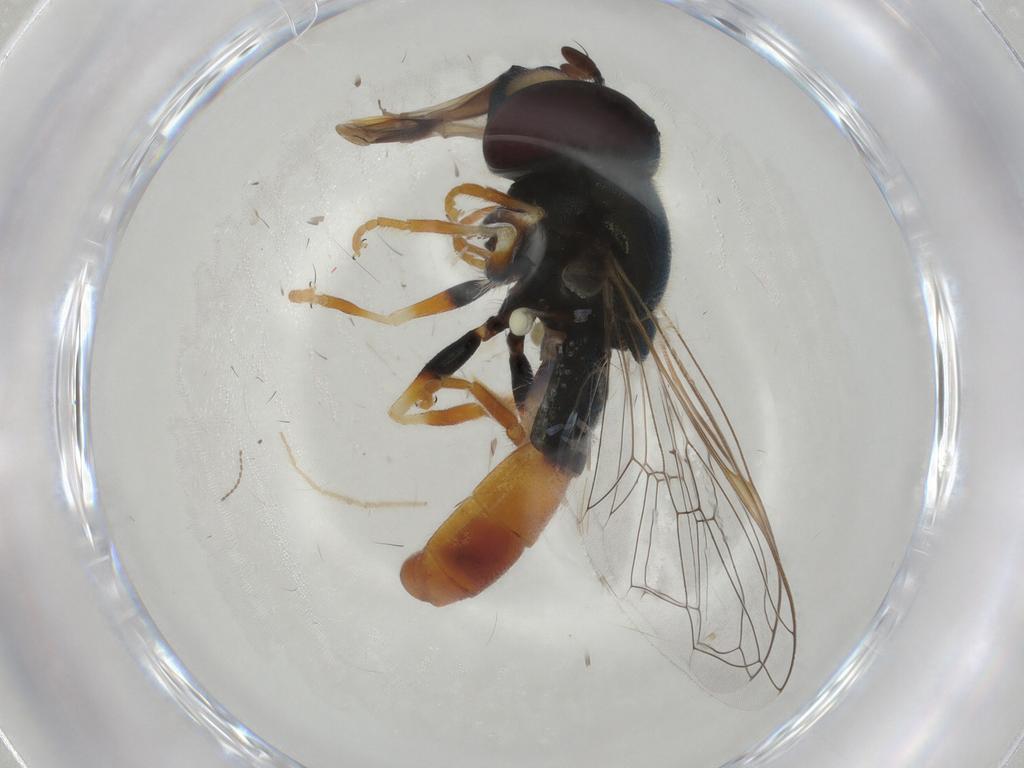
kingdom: Animalia
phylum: Arthropoda
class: Insecta
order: Diptera
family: Syrphidae
